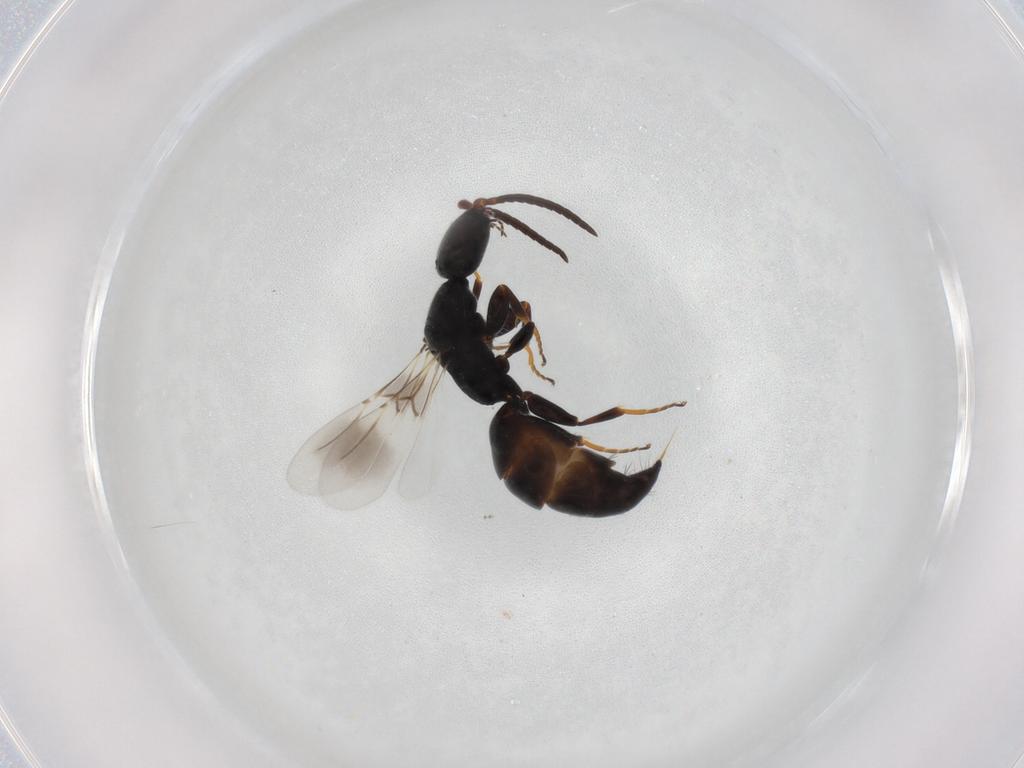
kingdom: Animalia
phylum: Arthropoda
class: Insecta
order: Hymenoptera
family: Bethylidae
